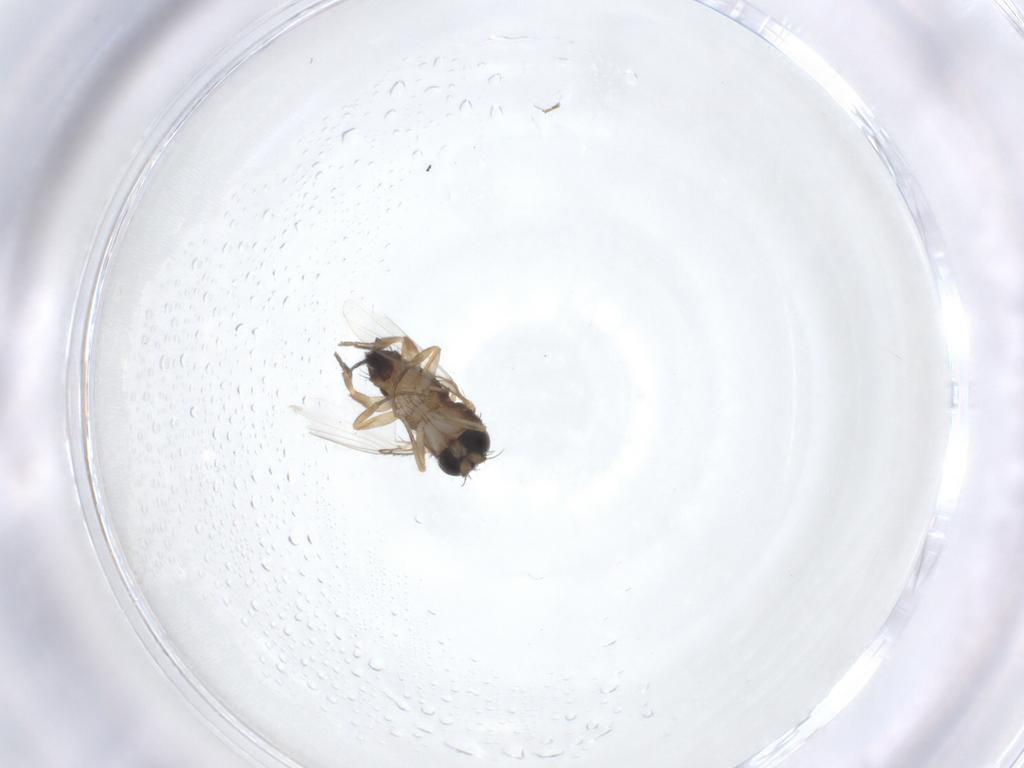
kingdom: Animalia
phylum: Arthropoda
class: Insecta
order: Diptera
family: Phoridae
